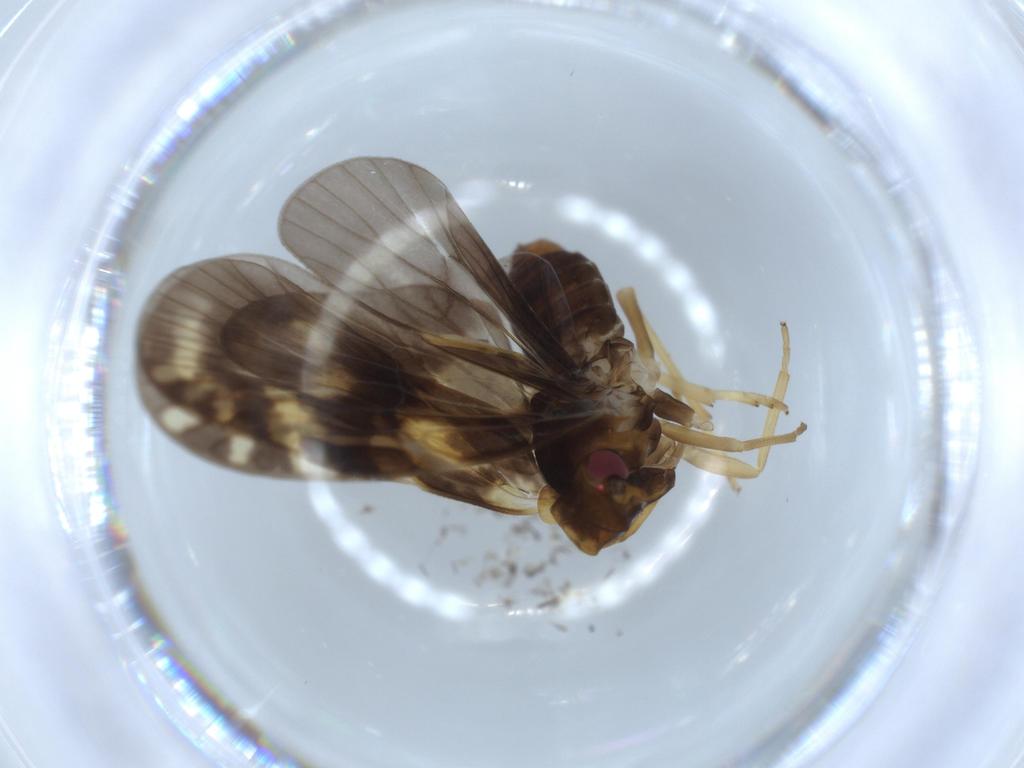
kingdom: Animalia
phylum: Arthropoda
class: Insecta
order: Hemiptera
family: Cixiidae
